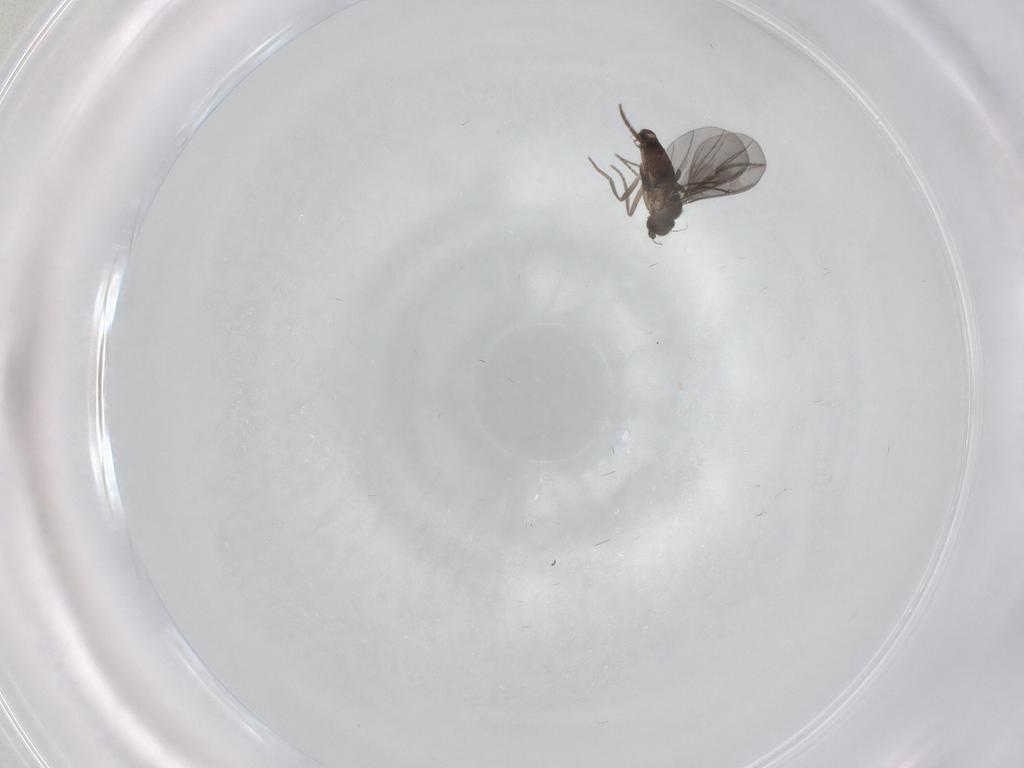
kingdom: Animalia
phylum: Arthropoda
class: Insecta
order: Diptera
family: Phoridae
